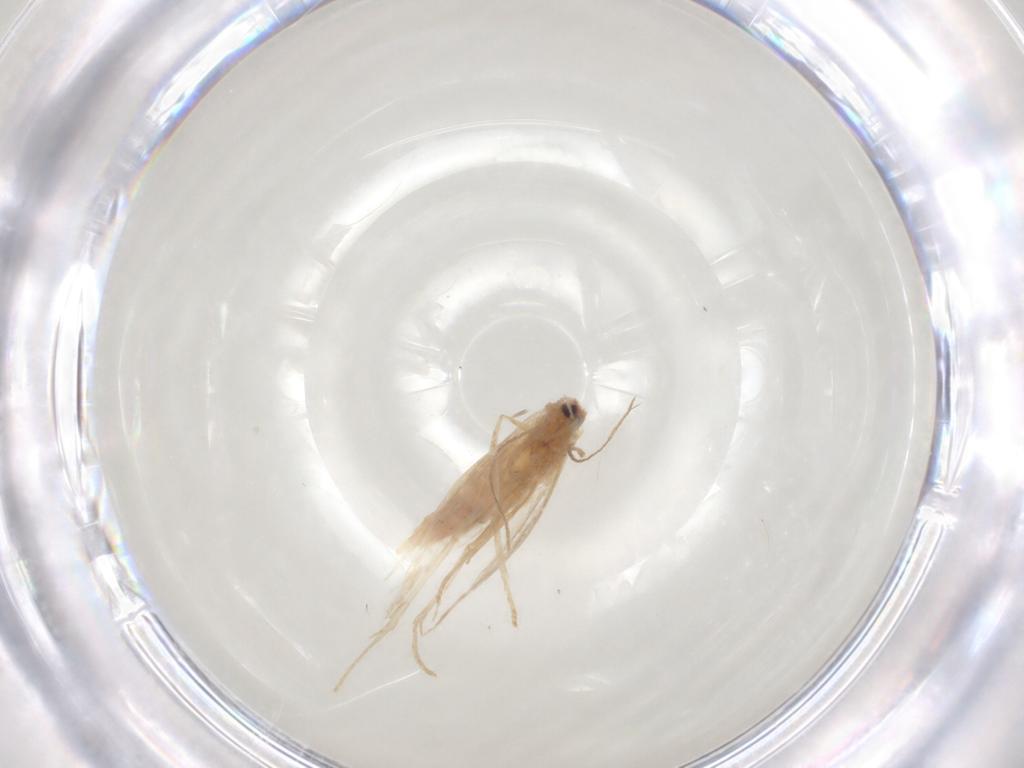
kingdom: Animalia
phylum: Arthropoda
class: Insecta
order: Lepidoptera
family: Coleophoridae
